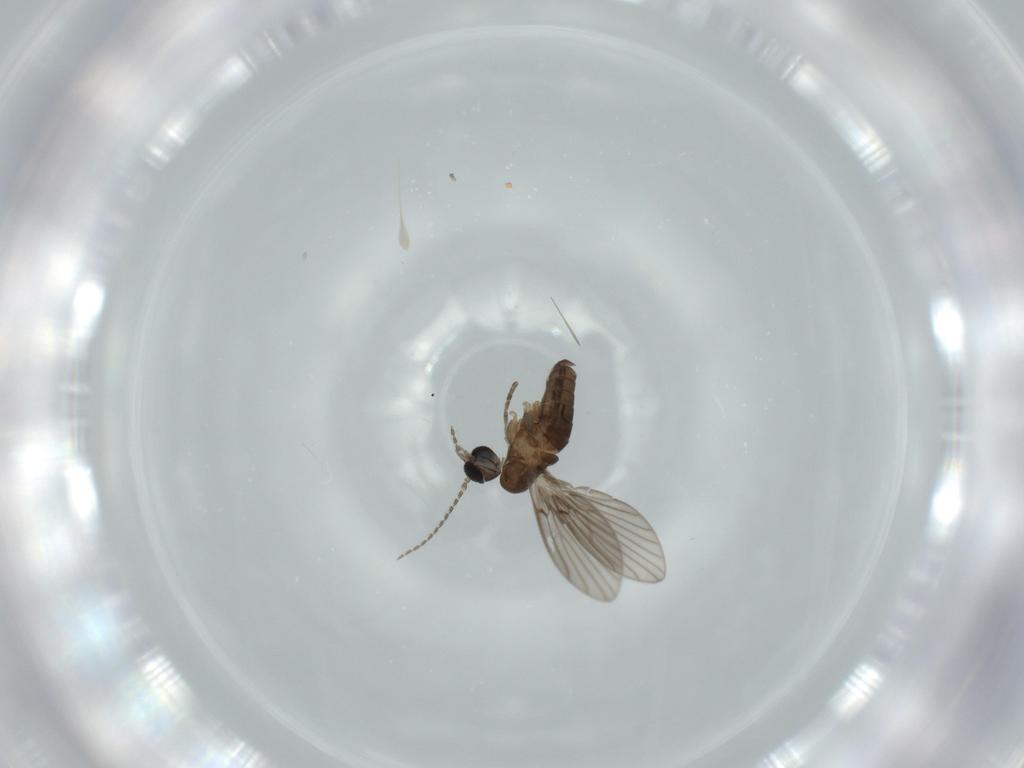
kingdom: Animalia
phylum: Arthropoda
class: Insecta
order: Diptera
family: Psychodidae
